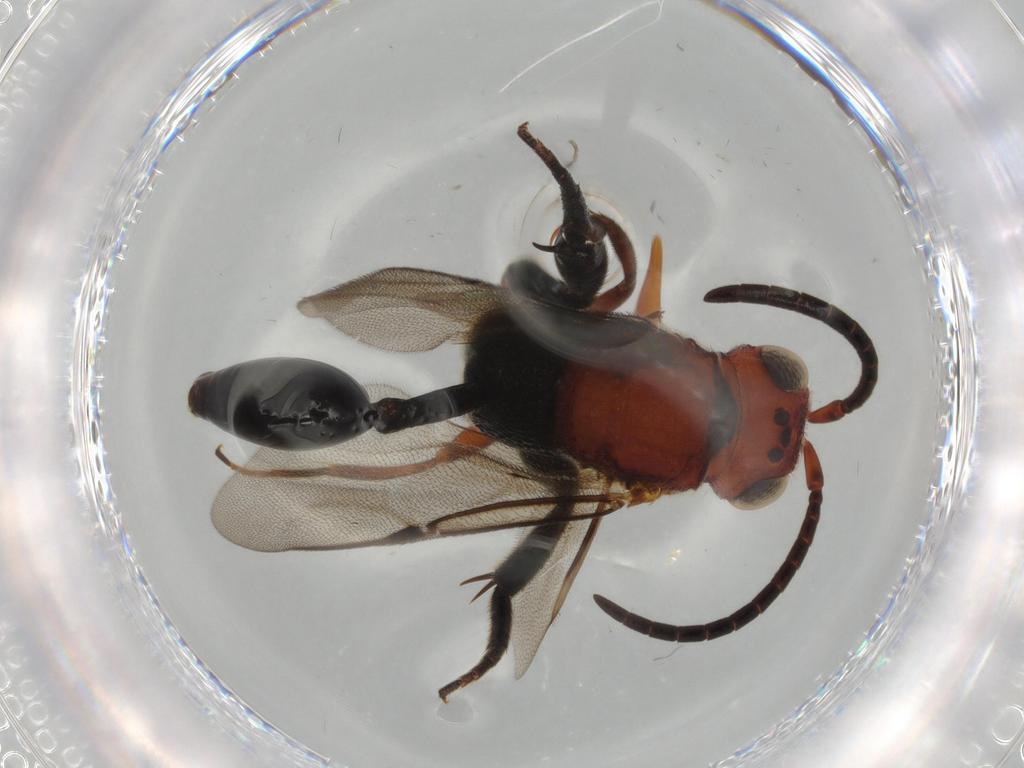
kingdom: Animalia
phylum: Arthropoda
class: Insecta
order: Hymenoptera
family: Evaniidae
